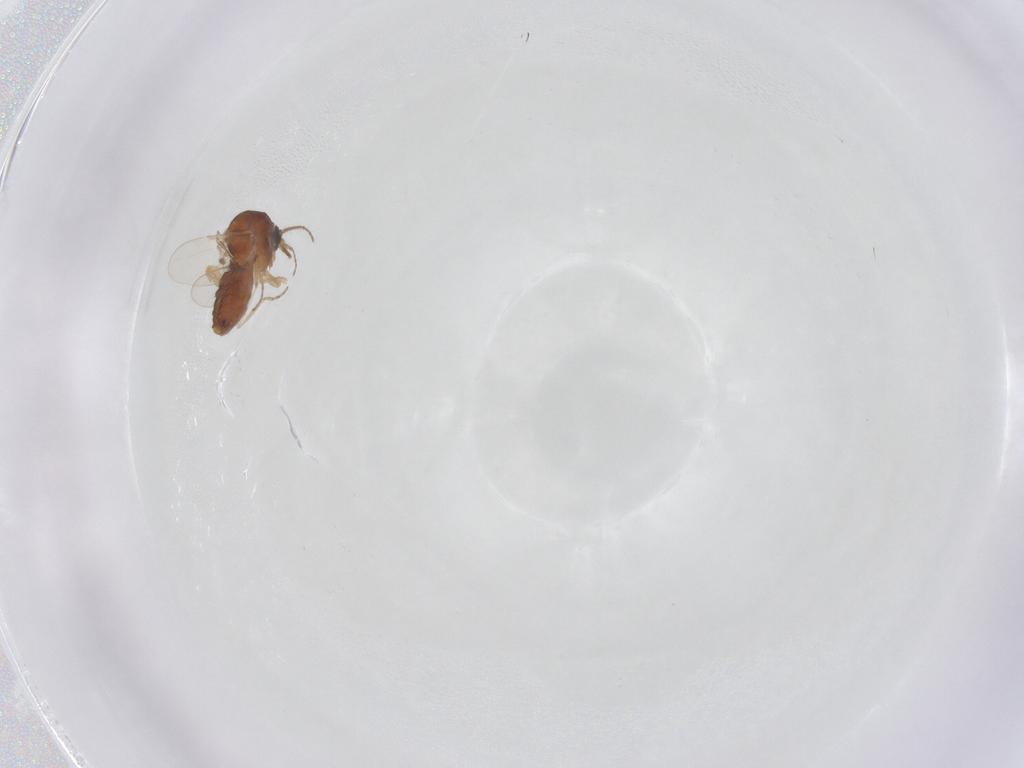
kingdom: Animalia
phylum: Arthropoda
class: Insecta
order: Diptera
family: Ceratopogonidae
